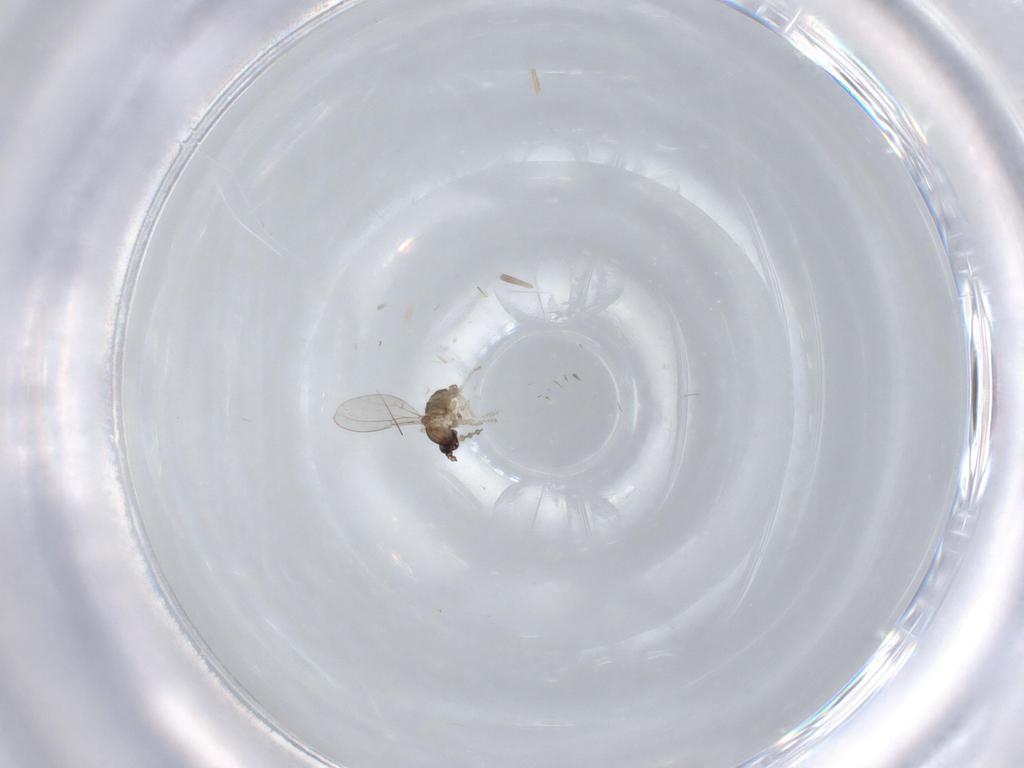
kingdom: Animalia
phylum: Arthropoda
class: Insecta
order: Diptera
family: Cecidomyiidae
